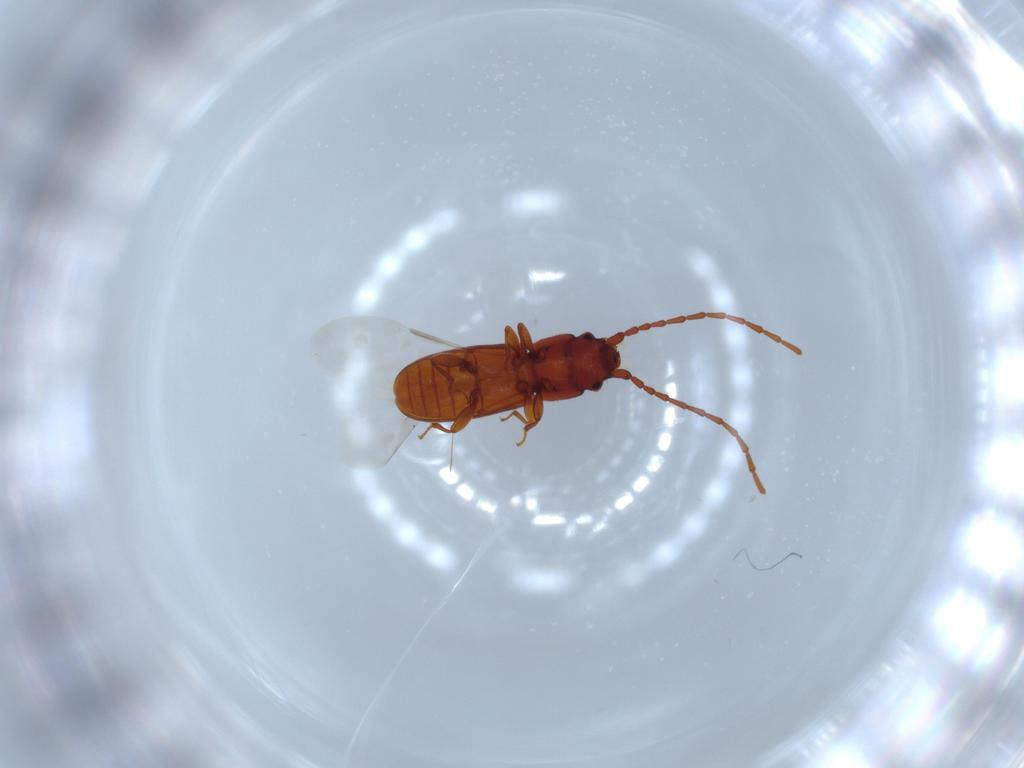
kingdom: Animalia
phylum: Arthropoda
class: Insecta
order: Coleoptera
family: Laemophloeidae
